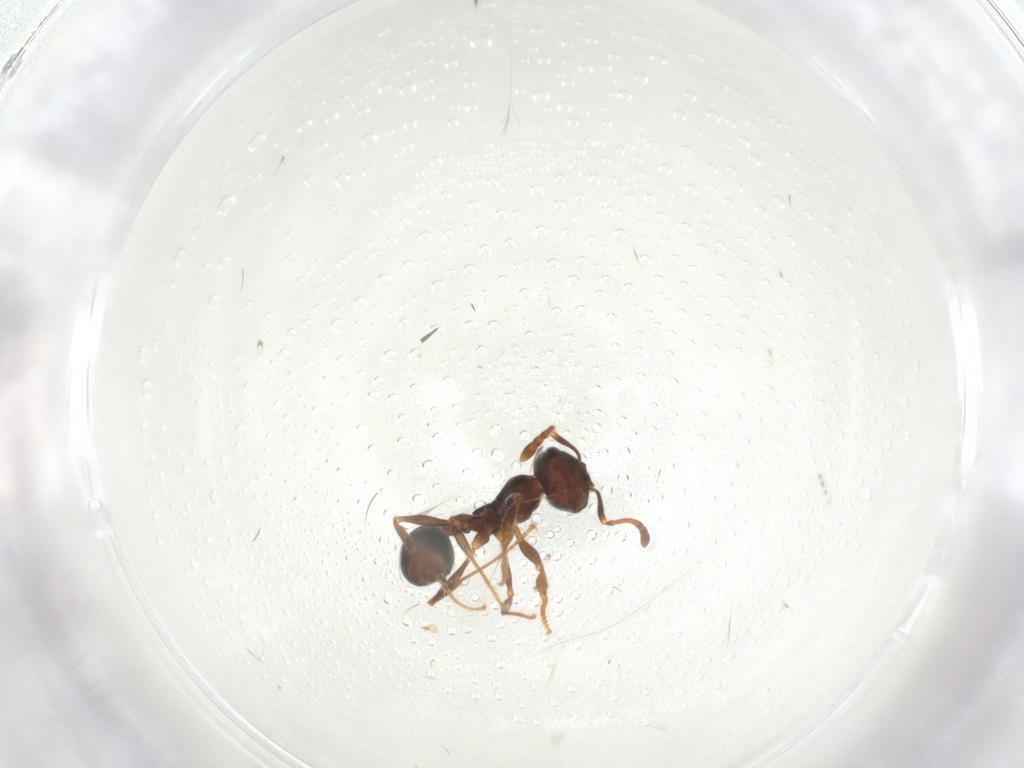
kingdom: Animalia
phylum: Arthropoda
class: Insecta
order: Hymenoptera
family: Formicidae
